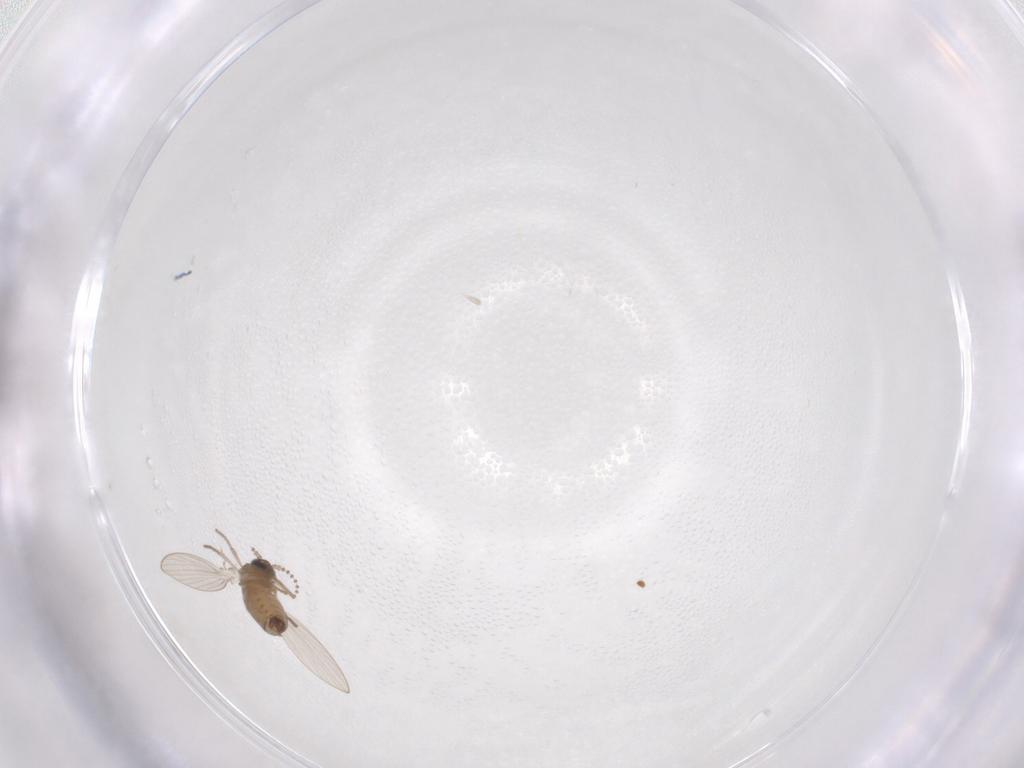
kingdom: Animalia
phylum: Arthropoda
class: Insecta
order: Diptera
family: Psychodidae
